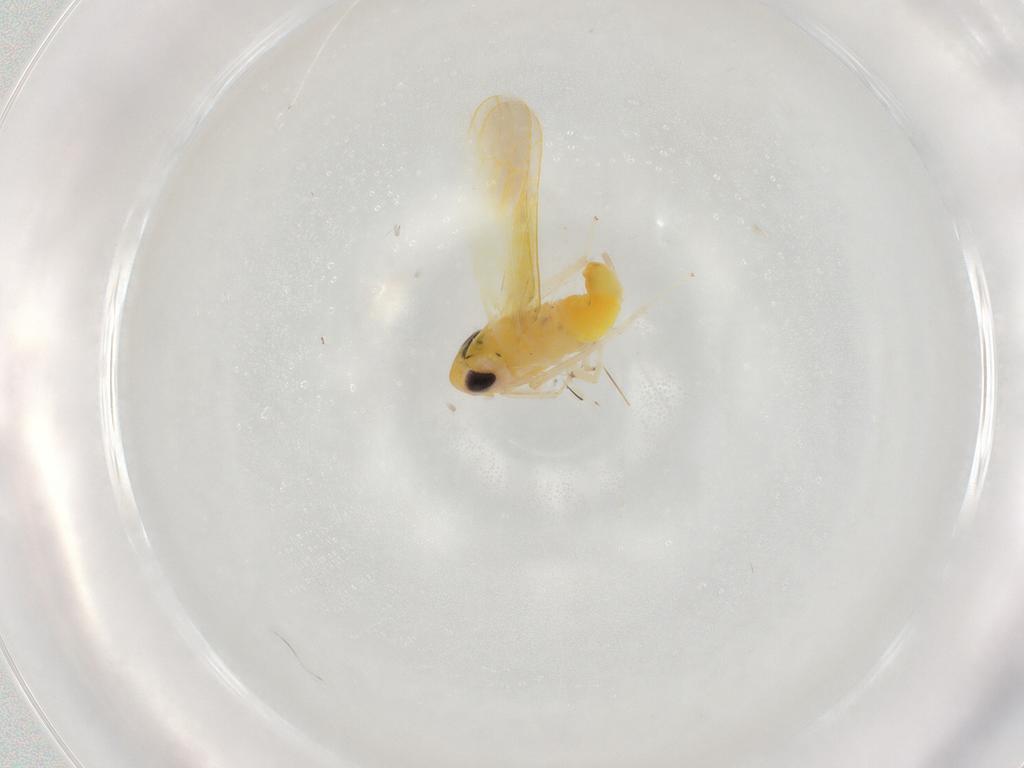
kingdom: Animalia
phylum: Arthropoda
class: Insecta
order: Hemiptera
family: Cicadellidae
